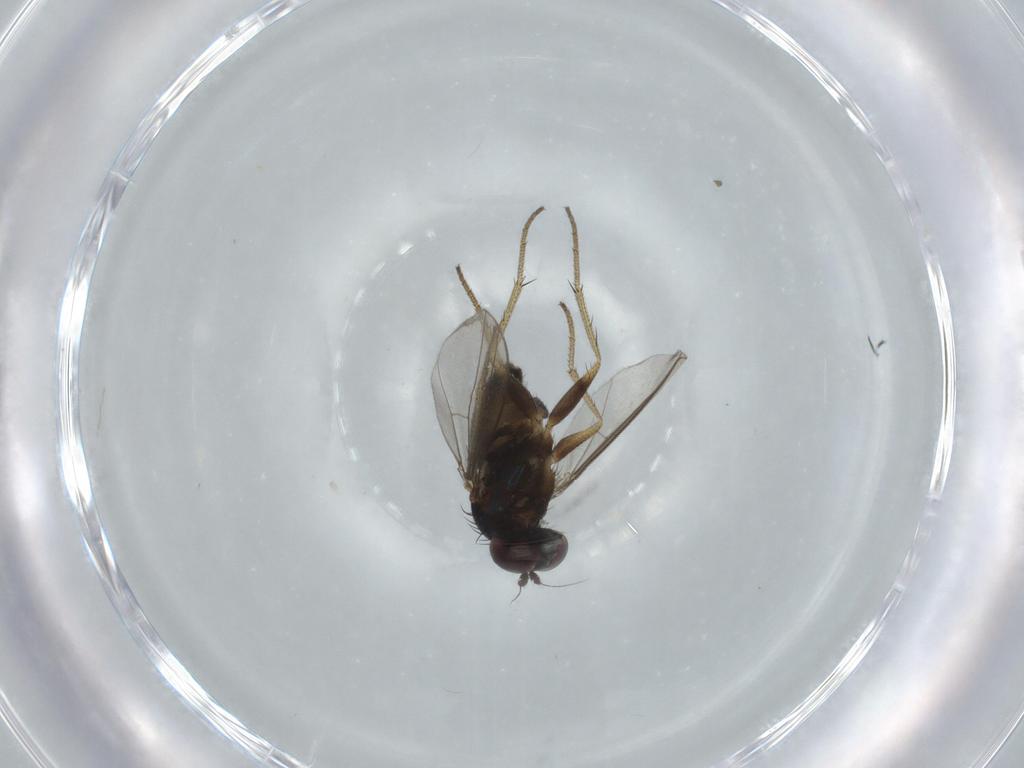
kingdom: Animalia
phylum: Arthropoda
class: Insecta
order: Diptera
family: Dolichopodidae
